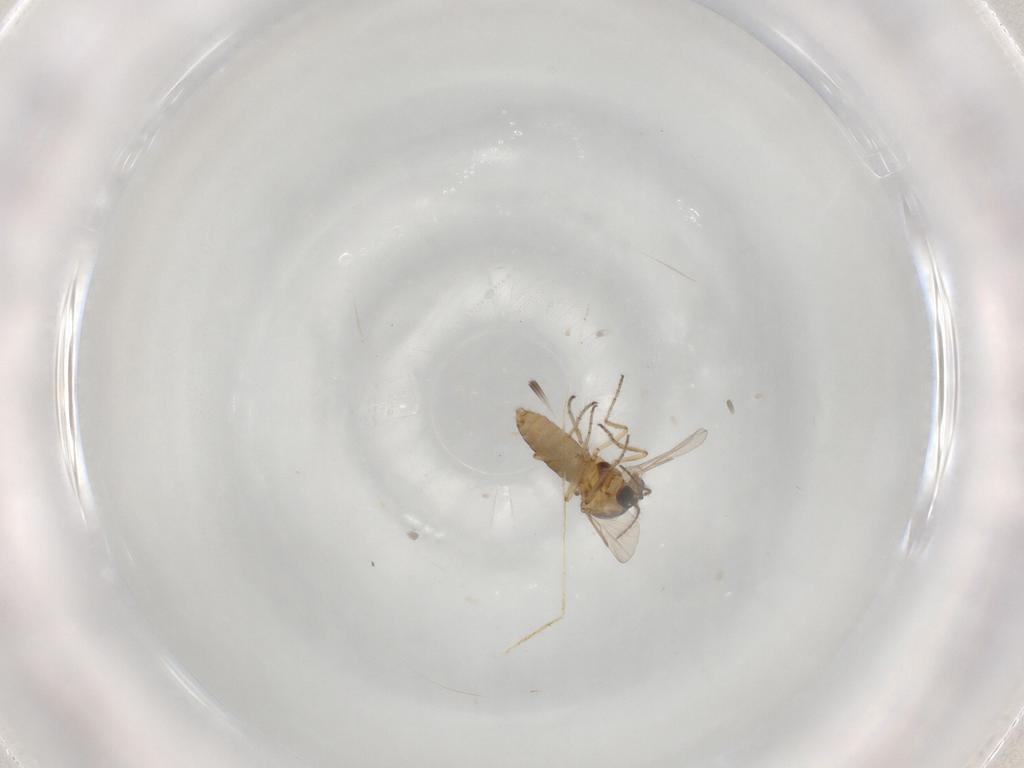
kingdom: Animalia
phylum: Arthropoda
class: Insecta
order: Diptera
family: Ceratopogonidae
